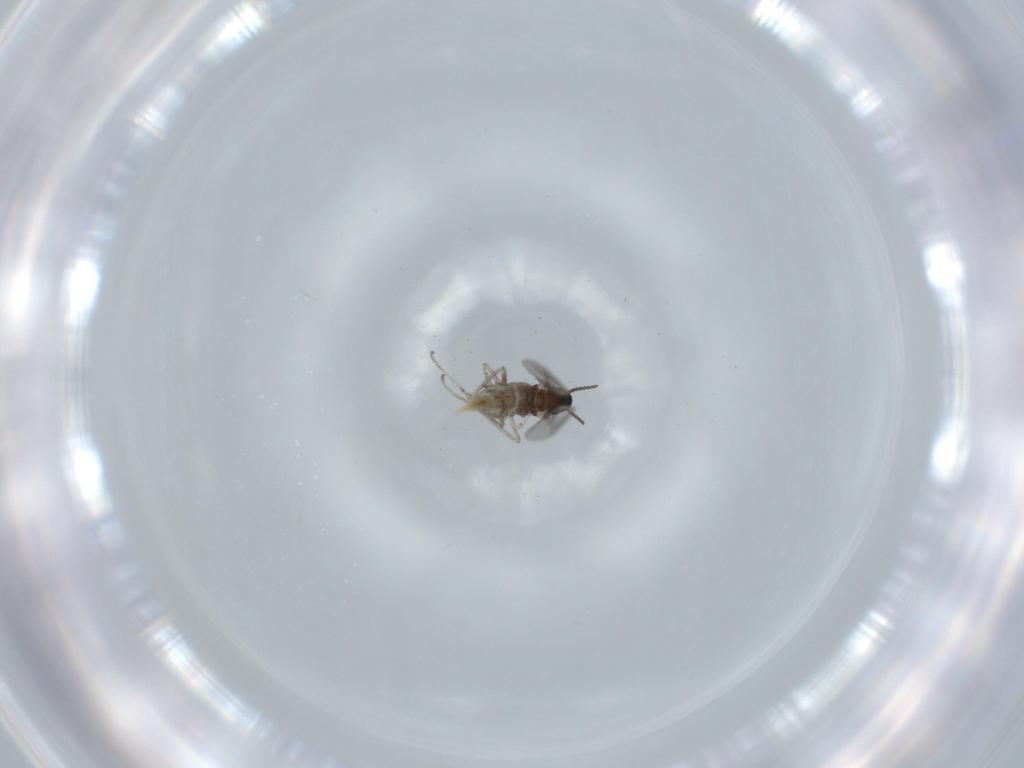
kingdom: Animalia
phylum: Arthropoda
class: Insecta
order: Diptera
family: Cecidomyiidae
